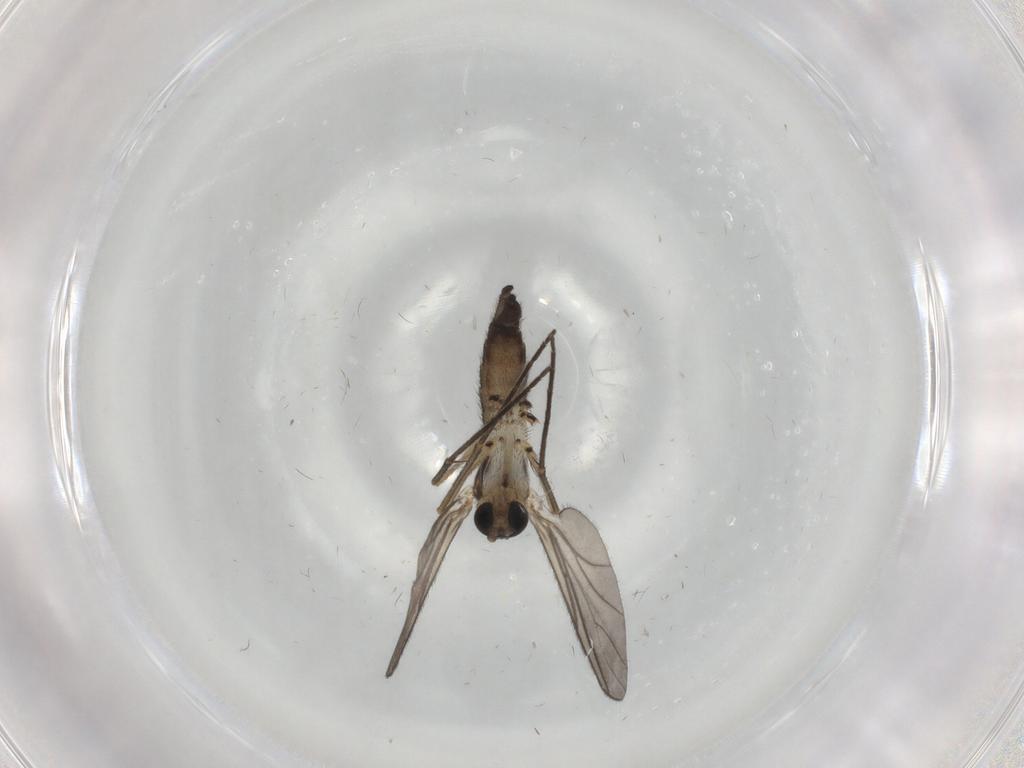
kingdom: Animalia
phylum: Arthropoda
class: Insecta
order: Diptera
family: Sciaridae
